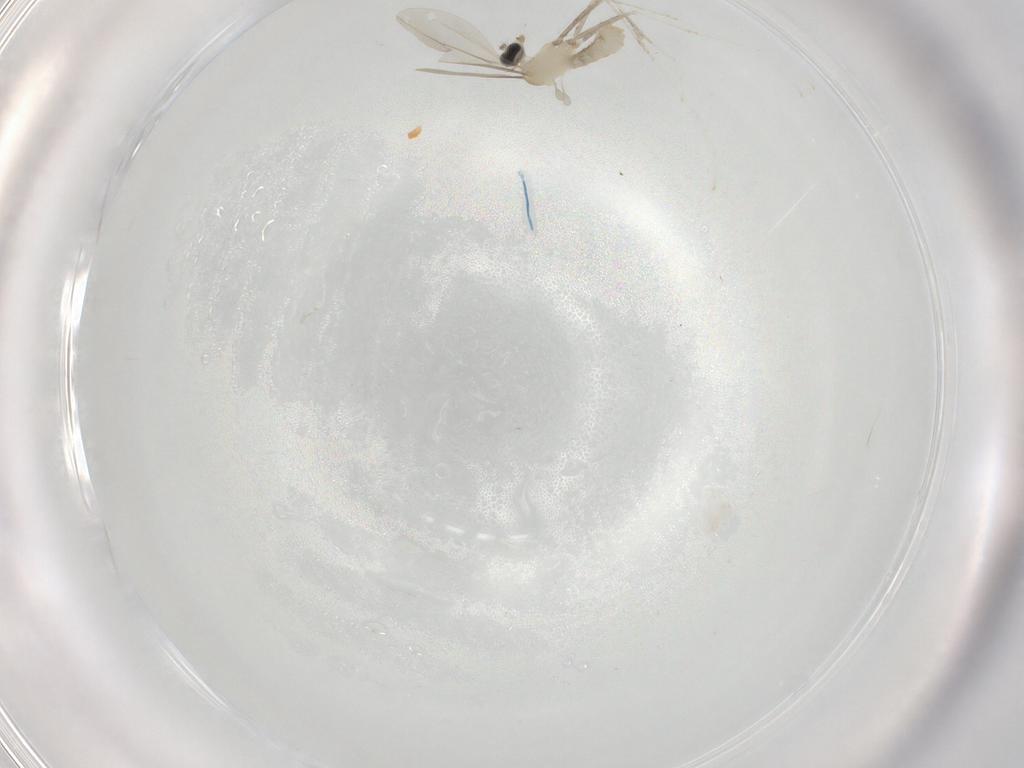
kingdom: Animalia
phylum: Arthropoda
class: Insecta
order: Diptera
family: Cecidomyiidae
